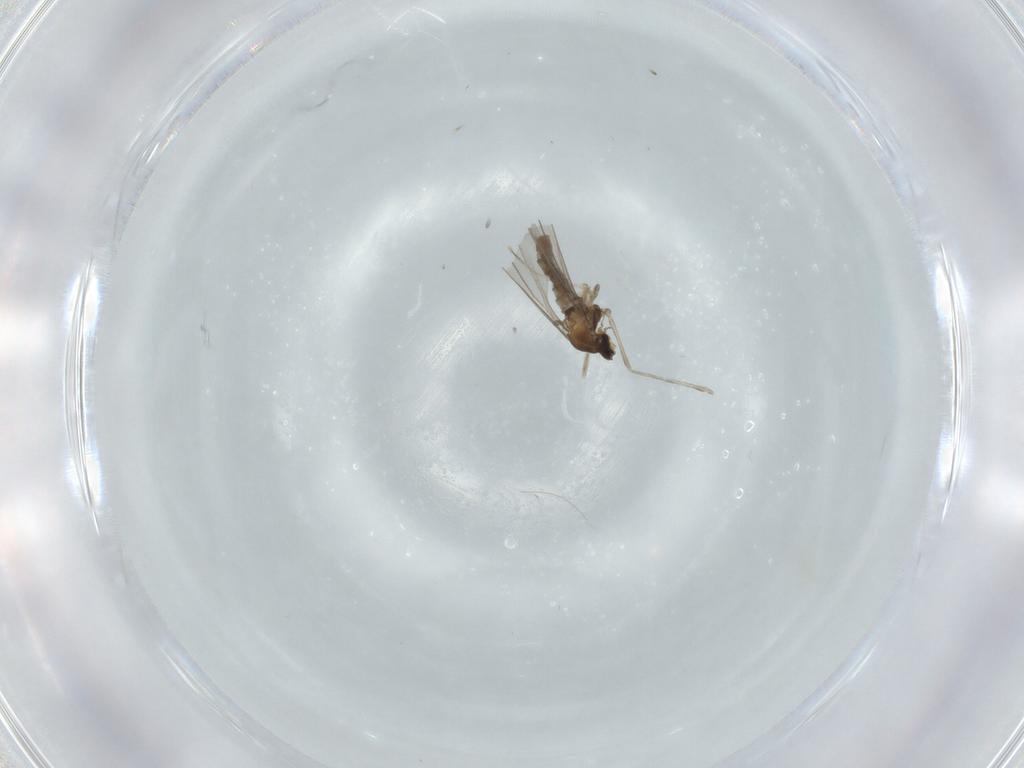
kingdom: Animalia
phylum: Arthropoda
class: Insecta
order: Diptera
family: Cecidomyiidae
